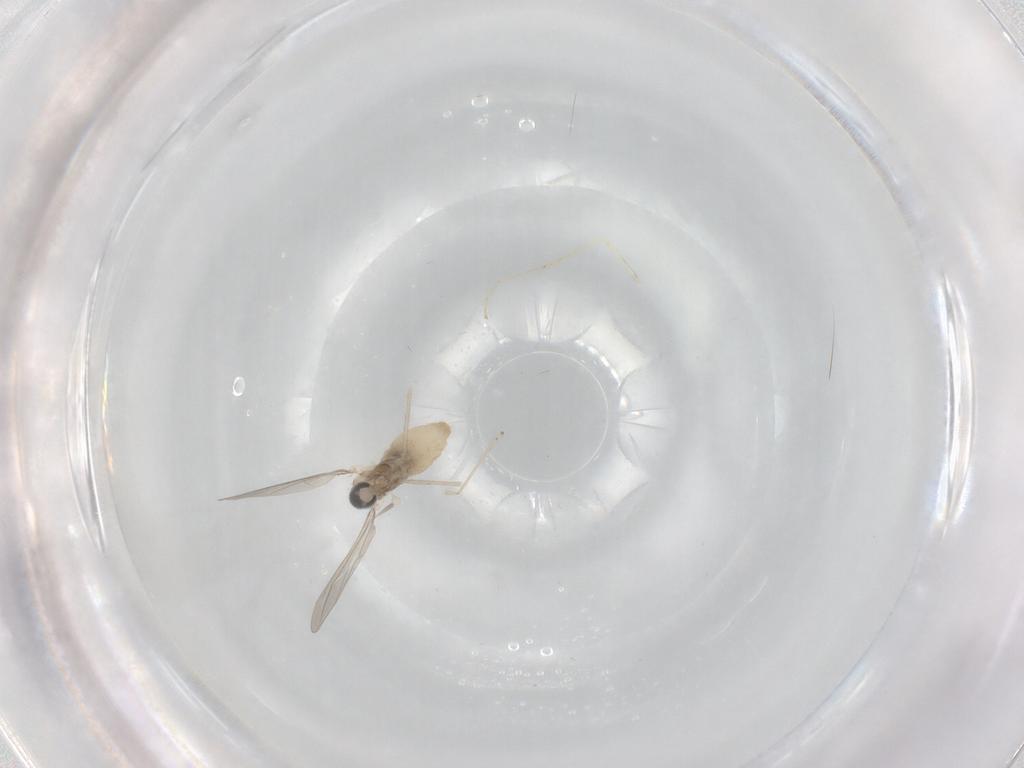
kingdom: Animalia
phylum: Arthropoda
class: Insecta
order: Diptera
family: Cecidomyiidae
